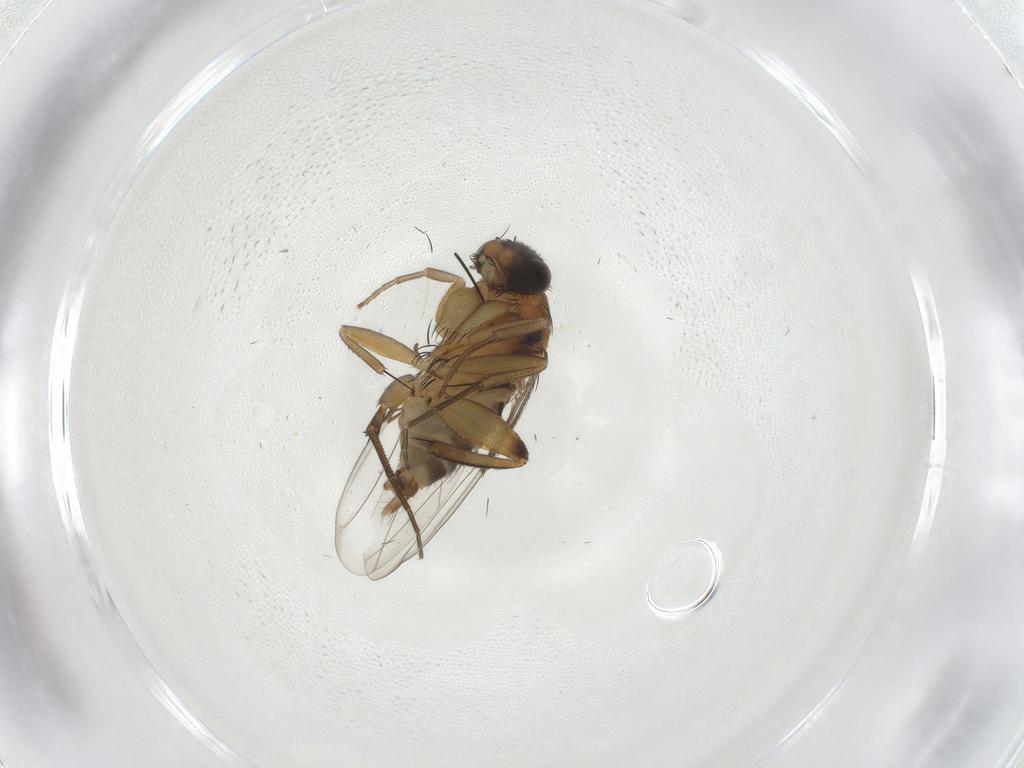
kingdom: Animalia
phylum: Arthropoda
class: Insecta
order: Diptera
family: Phoridae
